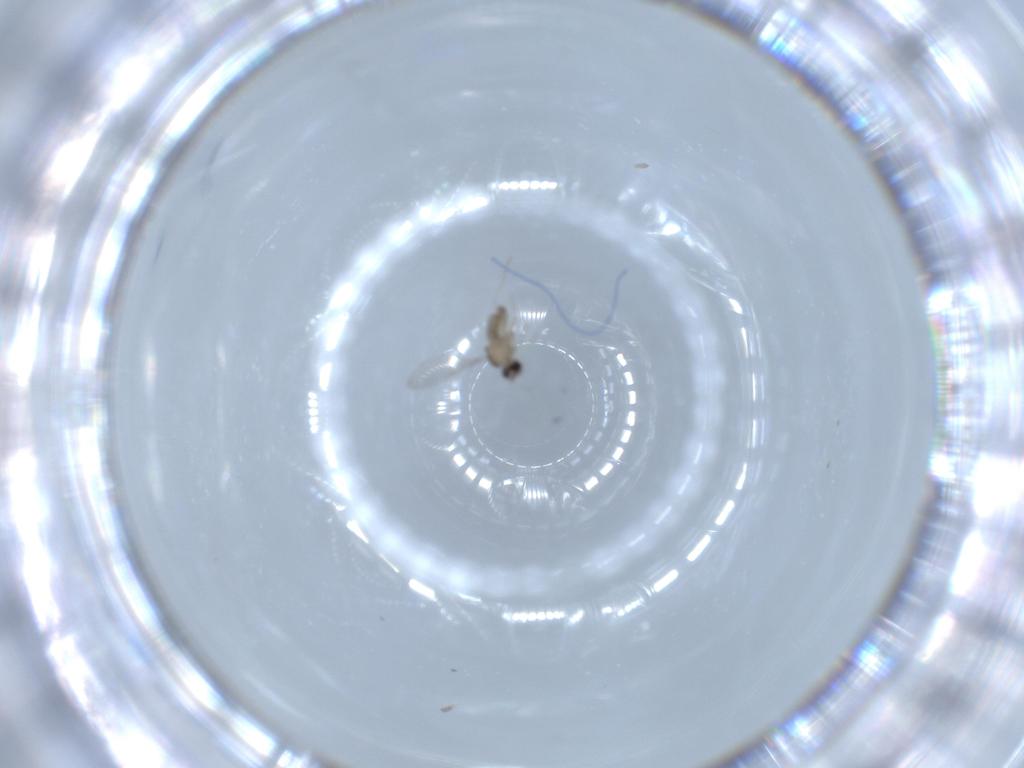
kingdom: Animalia
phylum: Arthropoda
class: Insecta
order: Diptera
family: Cecidomyiidae
